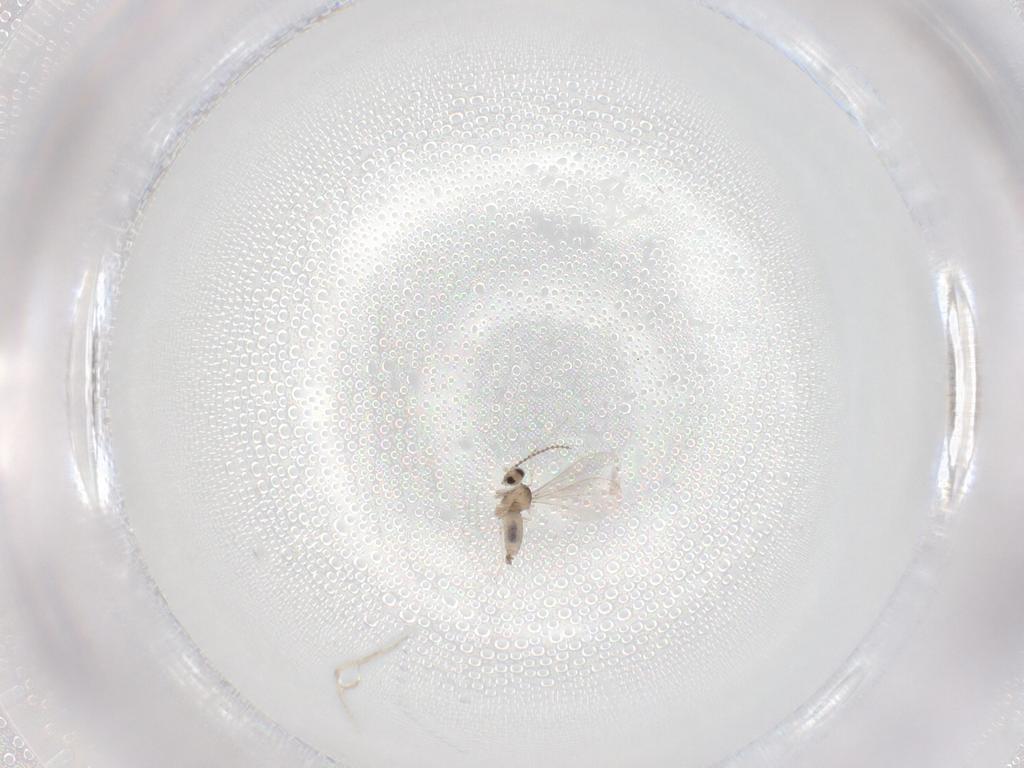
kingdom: Animalia
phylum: Arthropoda
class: Insecta
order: Diptera
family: Cecidomyiidae
